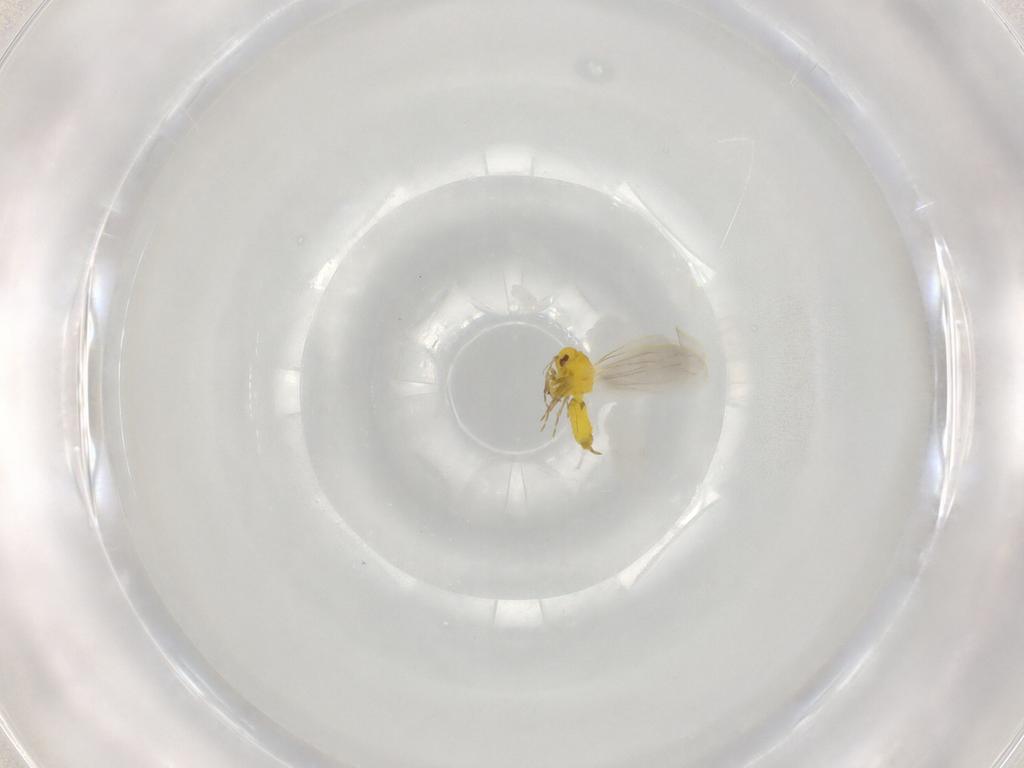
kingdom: Animalia
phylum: Arthropoda
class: Insecta
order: Hemiptera
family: Aleyrodidae
